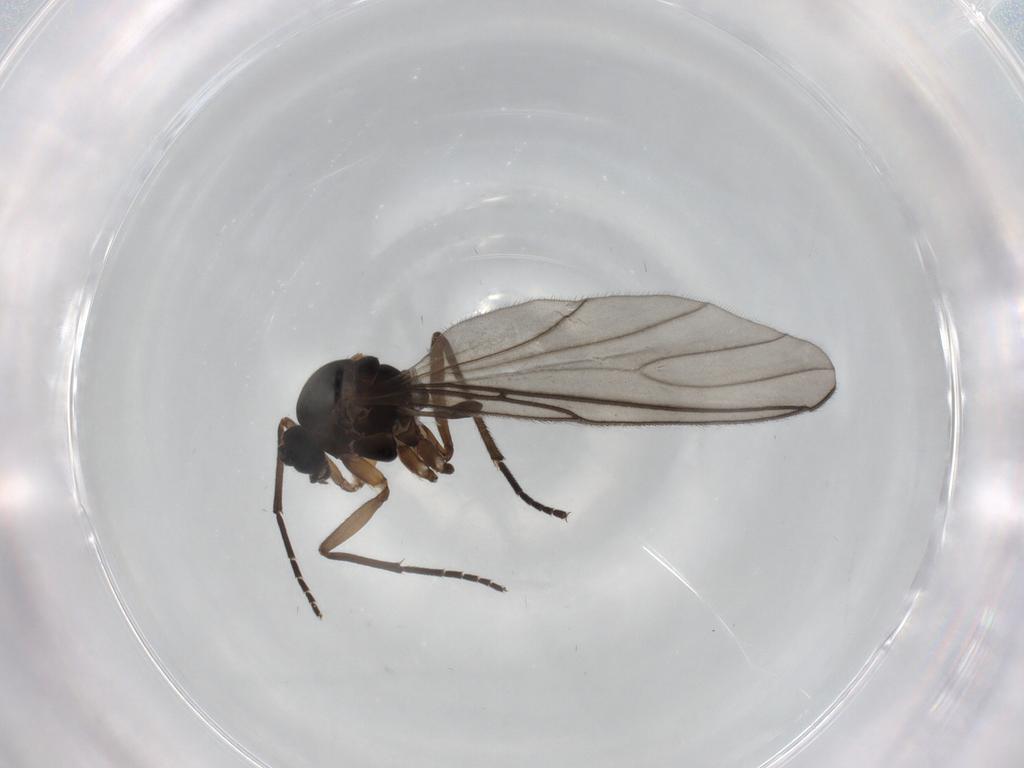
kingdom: Animalia
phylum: Arthropoda
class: Insecta
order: Diptera
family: Sciaridae
